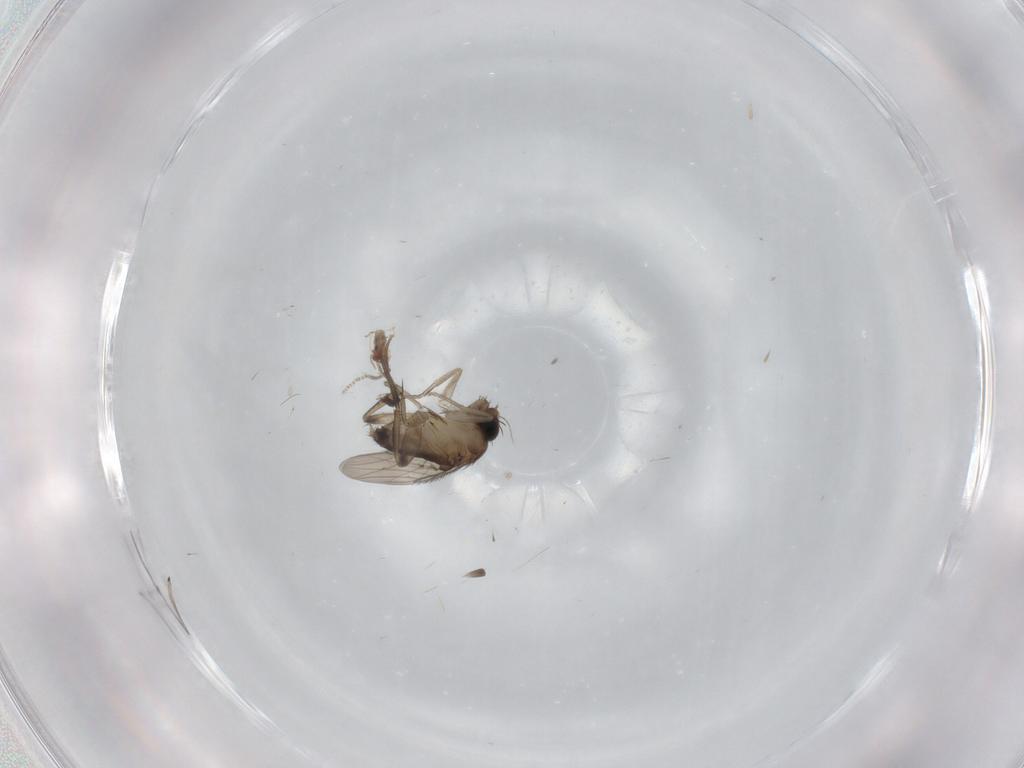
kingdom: Animalia
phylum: Arthropoda
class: Insecta
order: Diptera
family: Cecidomyiidae
